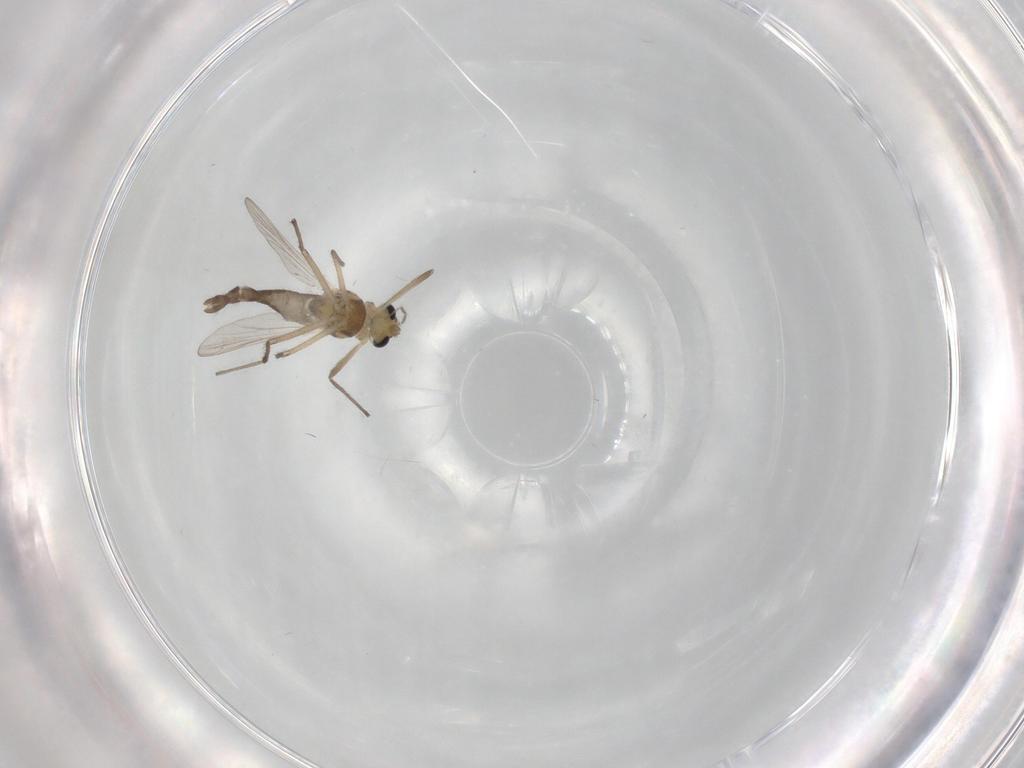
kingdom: Animalia
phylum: Arthropoda
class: Insecta
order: Diptera
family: Chironomidae
